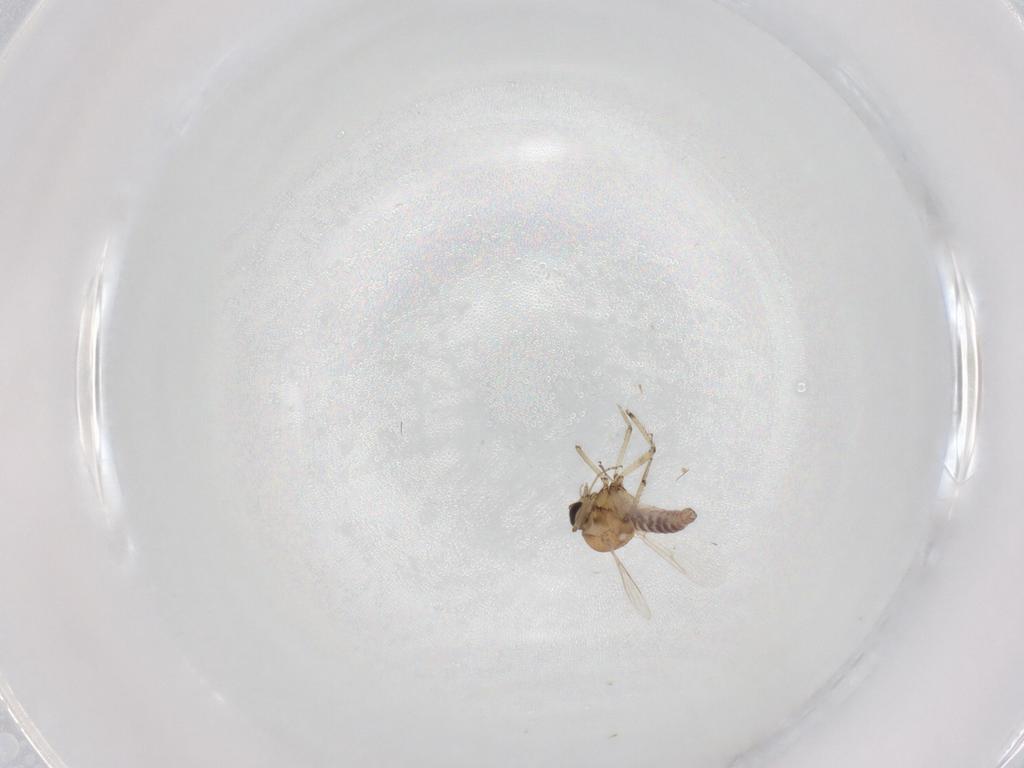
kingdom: Animalia
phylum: Arthropoda
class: Insecta
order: Diptera
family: Ceratopogonidae
